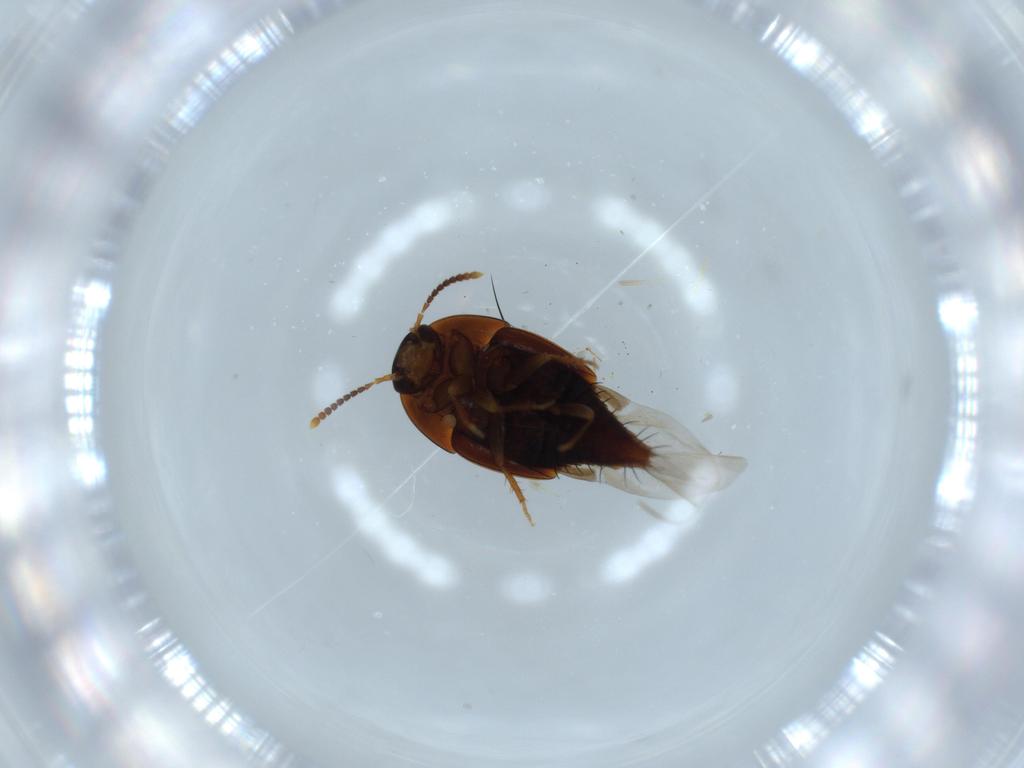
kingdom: Animalia
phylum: Arthropoda
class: Insecta
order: Coleoptera
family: Staphylinidae
